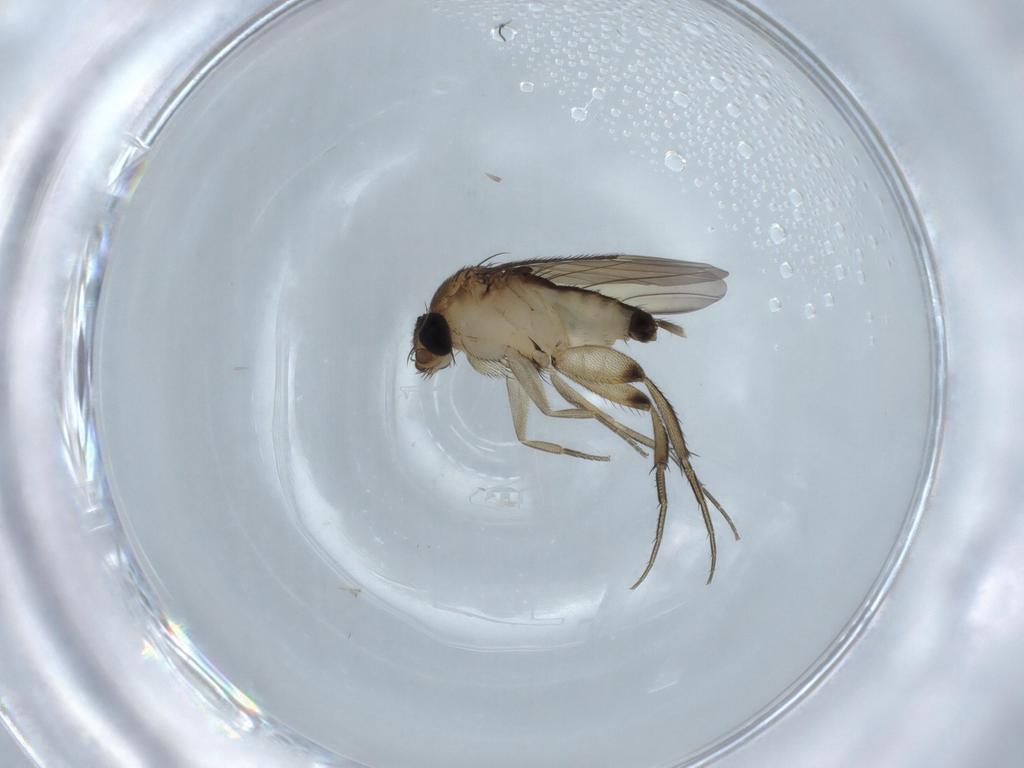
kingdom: Animalia
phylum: Arthropoda
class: Insecta
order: Diptera
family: Phoridae
